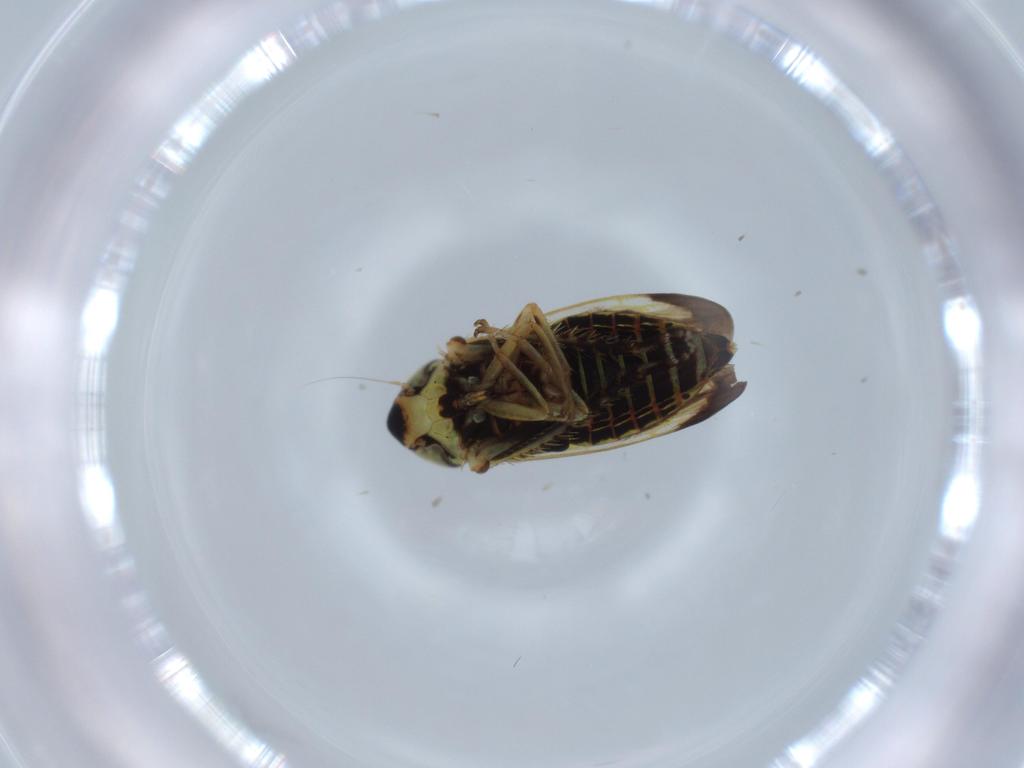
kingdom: Animalia
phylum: Arthropoda
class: Insecta
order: Hemiptera
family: Cicadellidae
